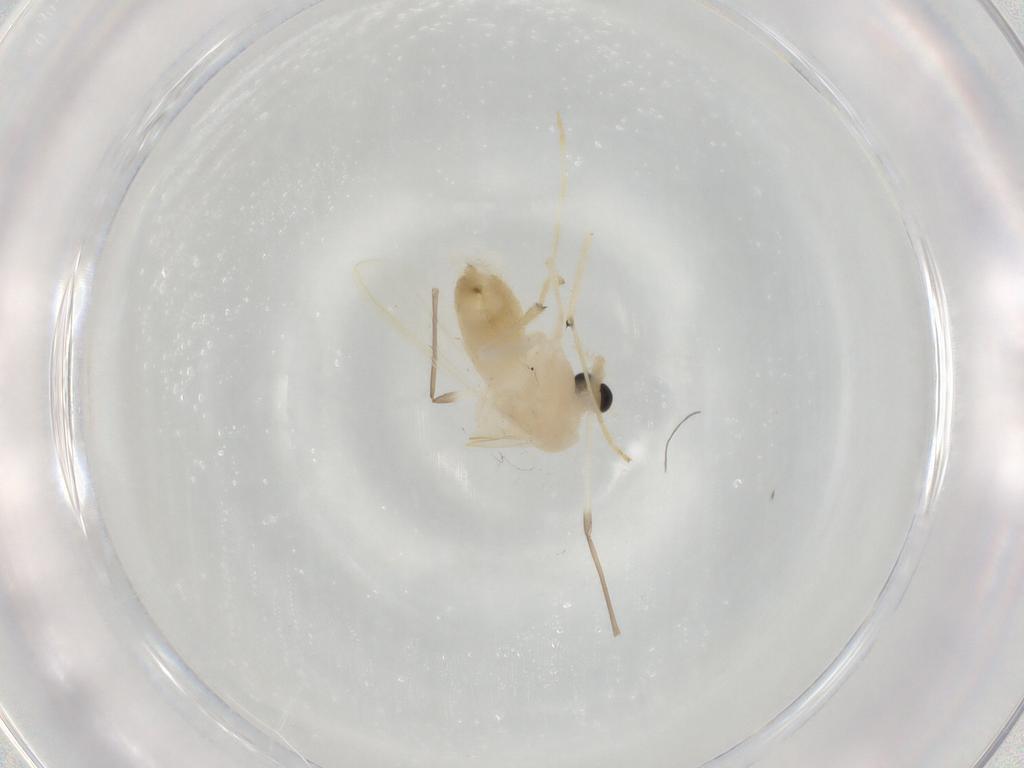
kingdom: Animalia
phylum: Arthropoda
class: Insecta
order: Diptera
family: Chironomidae
